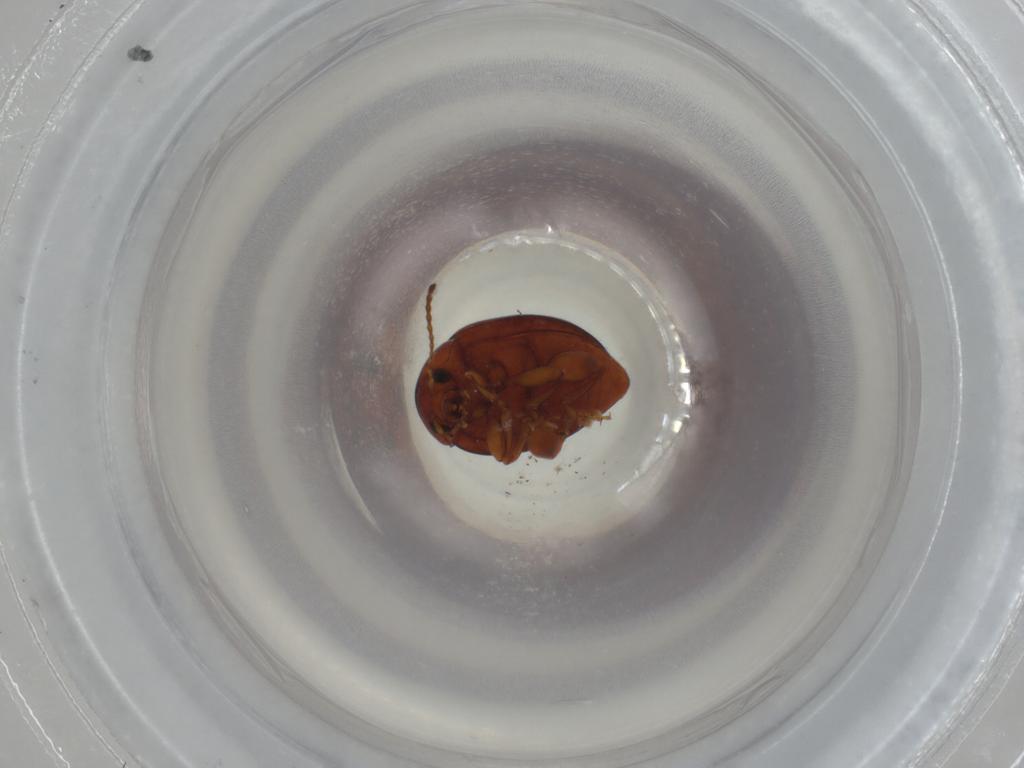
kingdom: Animalia
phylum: Arthropoda
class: Insecta
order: Coleoptera
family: Chrysomelidae
